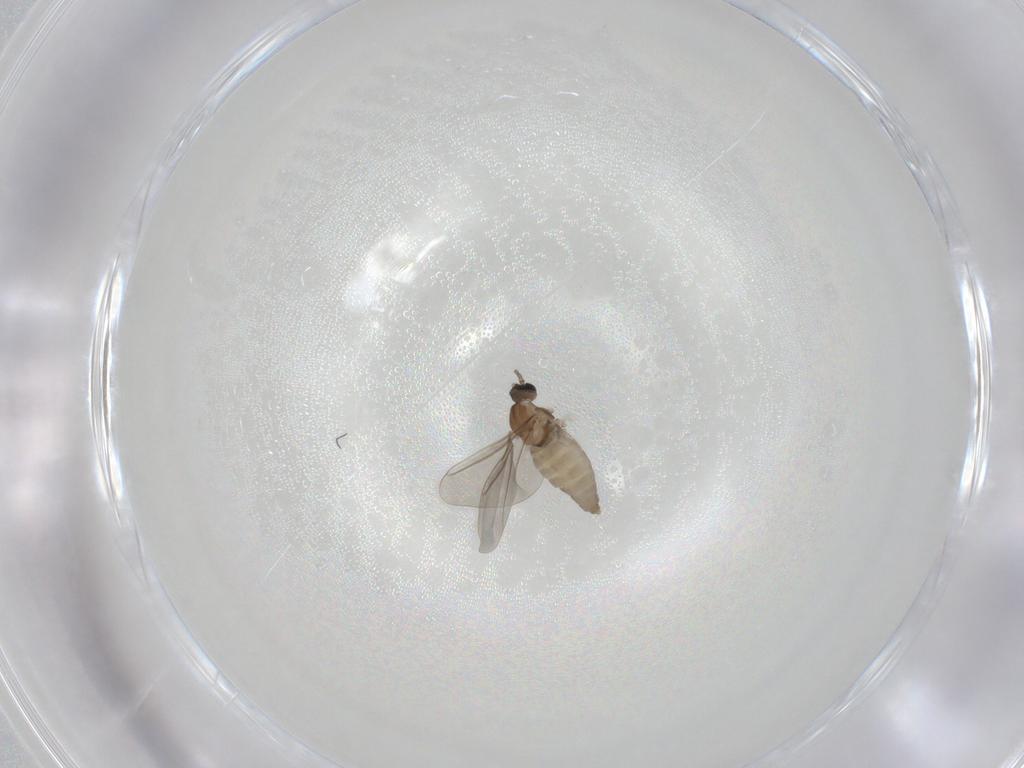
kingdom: Animalia
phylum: Arthropoda
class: Insecta
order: Diptera
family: Cecidomyiidae
